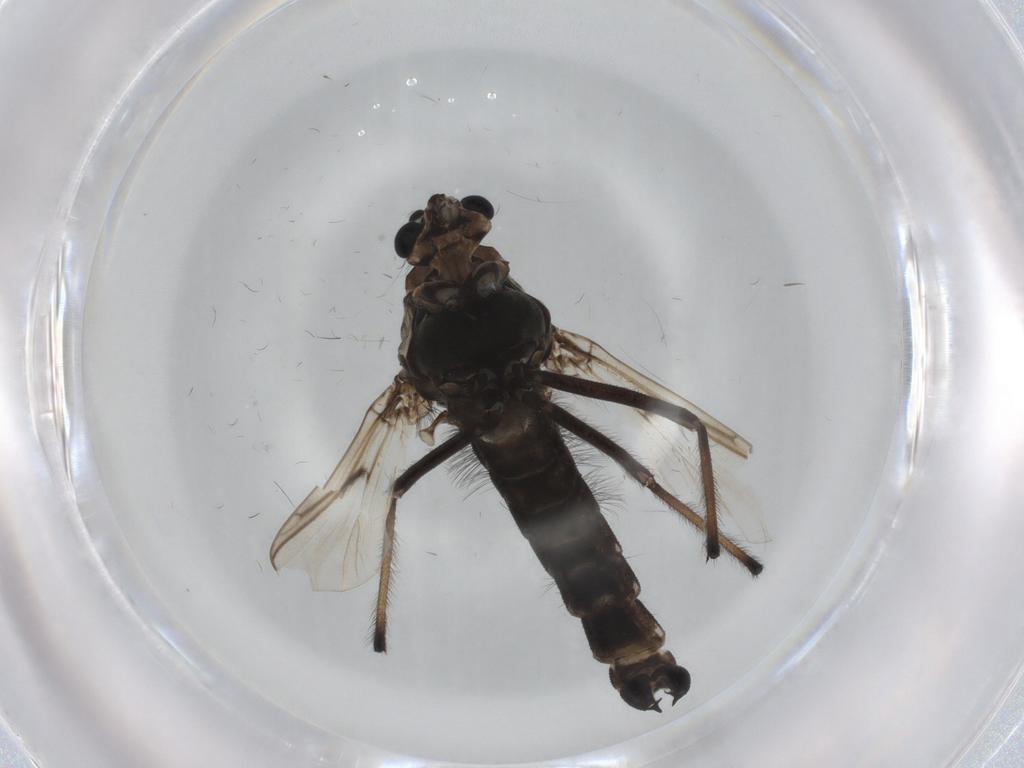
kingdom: Animalia
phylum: Arthropoda
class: Insecta
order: Diptera
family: Chironomidae
